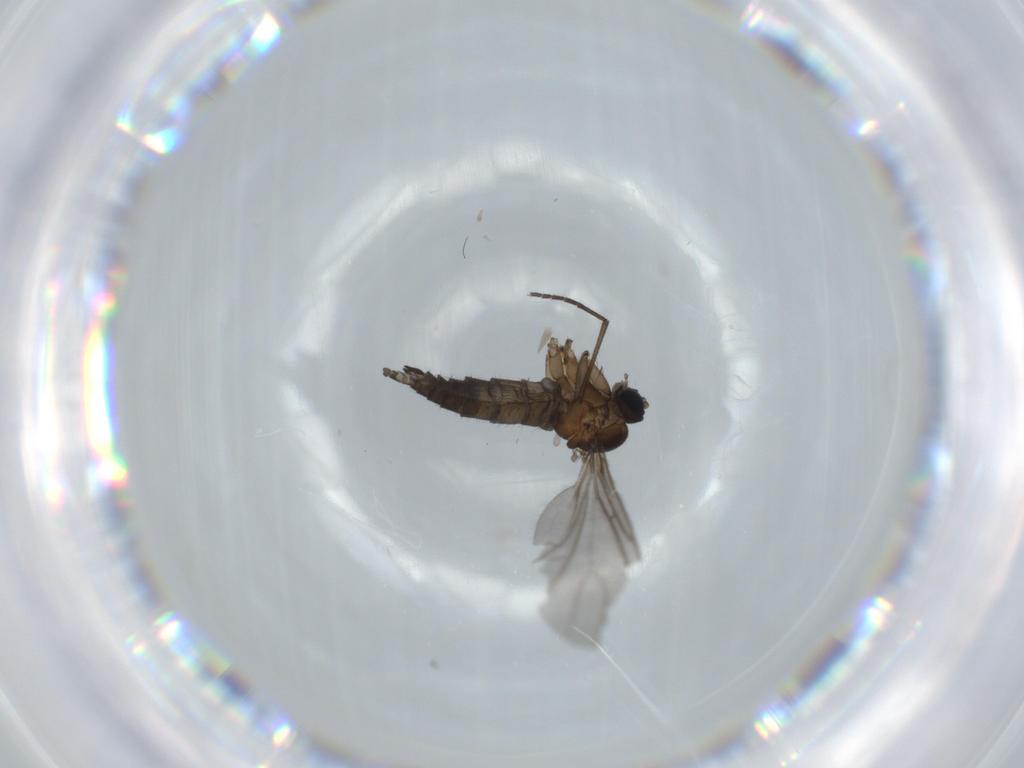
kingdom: Animalia
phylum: Arthropoda
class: Insecta
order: Diptera
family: Sciaridae
